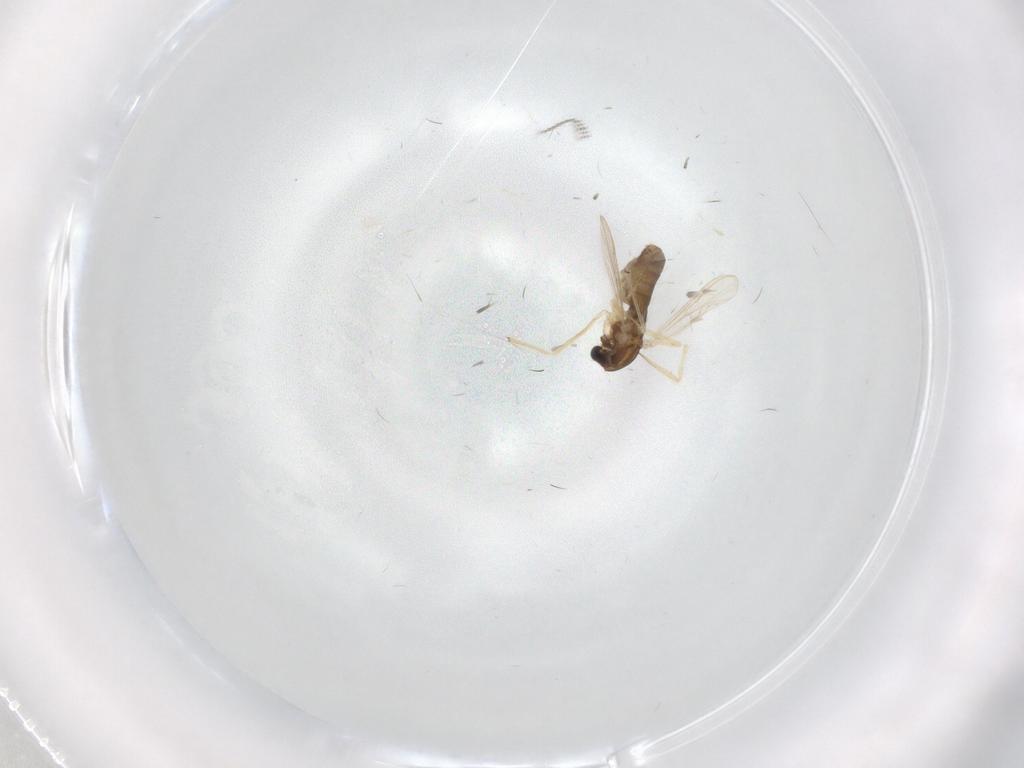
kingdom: Animalia
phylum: Arthropoda
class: Insecta
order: Diptera
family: Chironomidae
